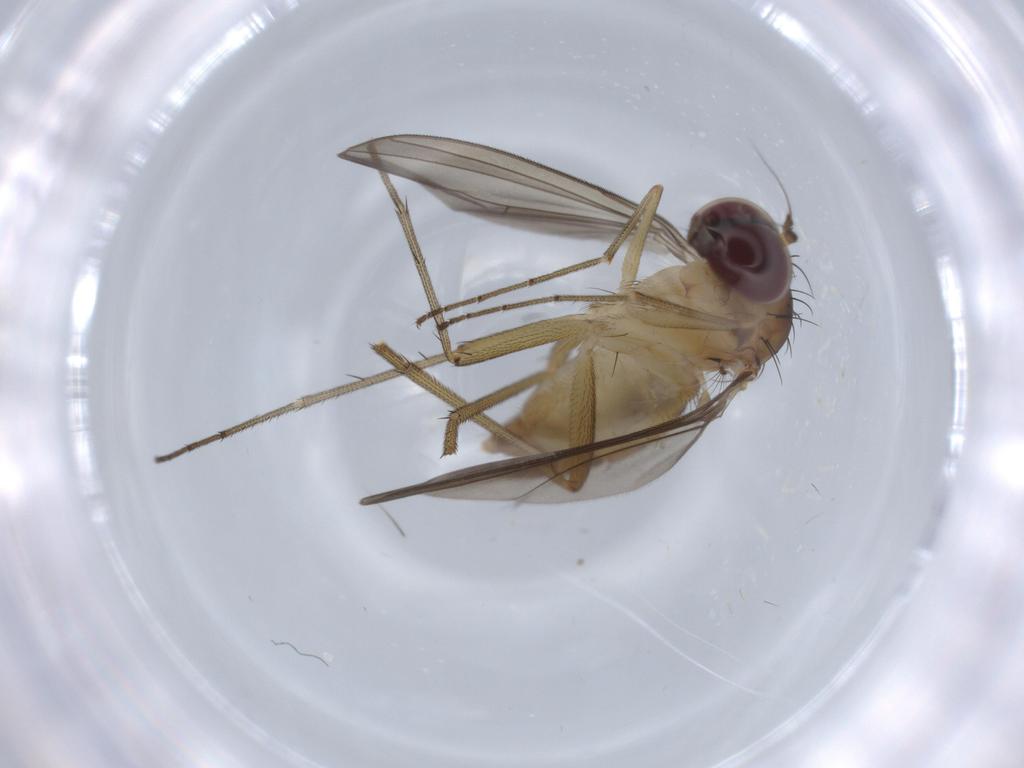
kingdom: Animalia
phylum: Arthropoda
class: Insecta
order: Diptera
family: Dolichopodidae
